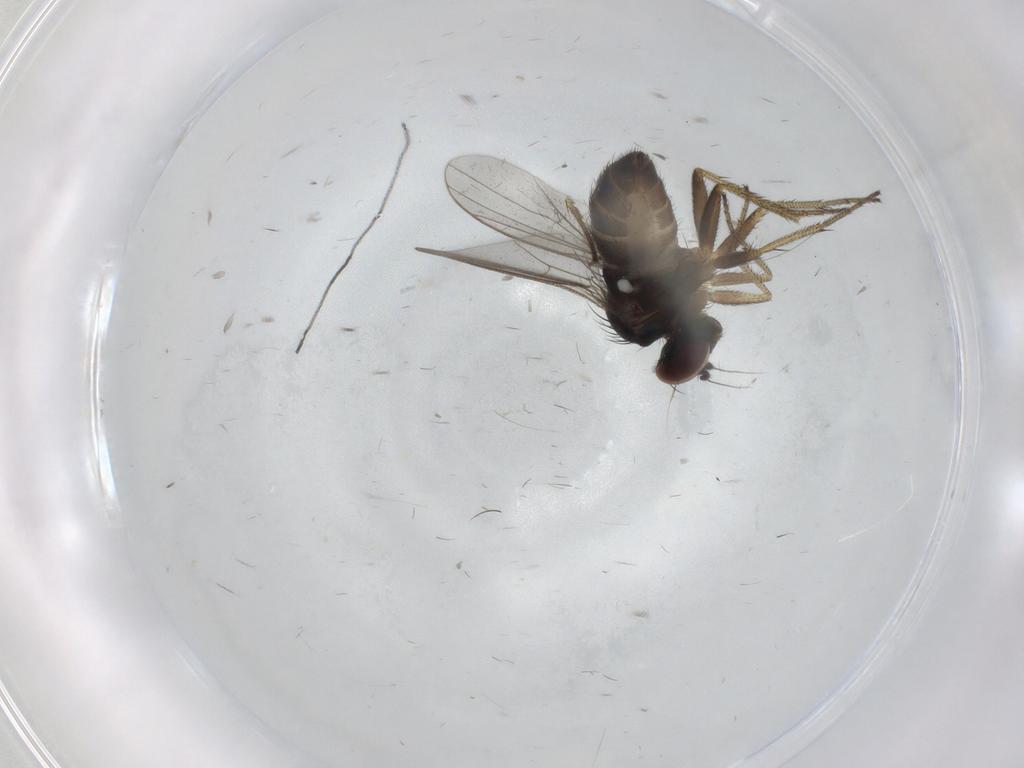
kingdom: Animalia
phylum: Arthropoda
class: Insecta
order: Diptera
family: Ceratopogonidae
